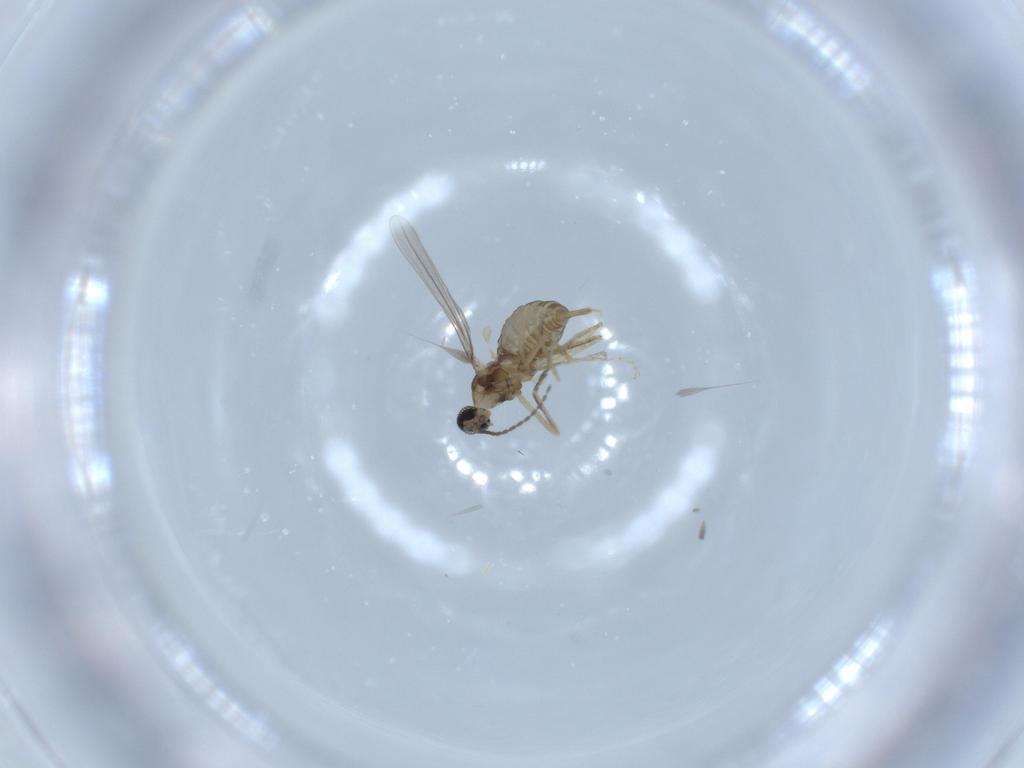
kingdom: Animalia
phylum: Arthropoda
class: Insecta
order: Diptera
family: Cecidomyiidae
